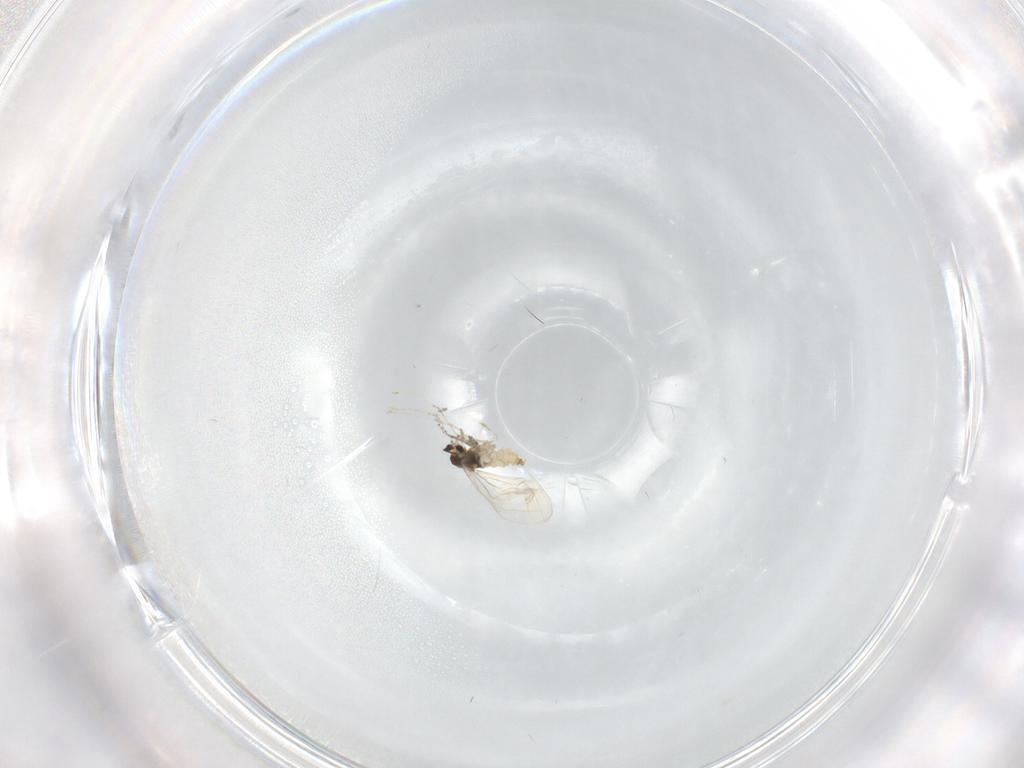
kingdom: Animalia
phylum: Arthropoda
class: Insecta
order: Diptera
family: Cecidomyiidae
